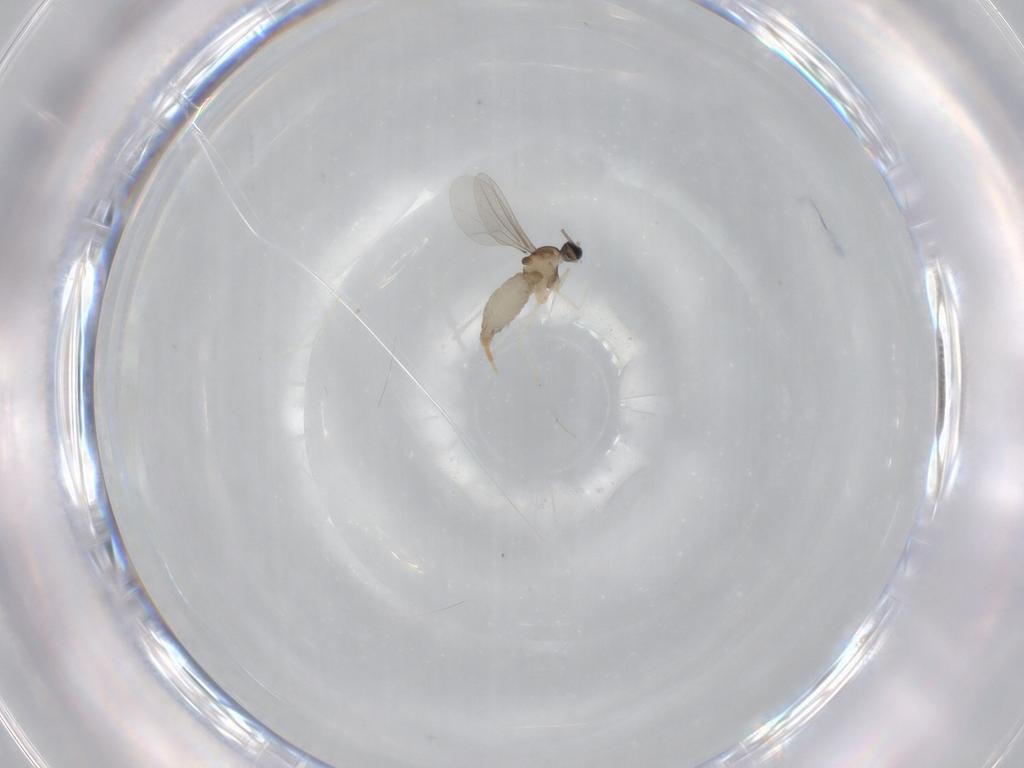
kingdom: Animalia
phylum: Arthropoda
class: Insecta
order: Diptera
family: Cecidomyiidae
